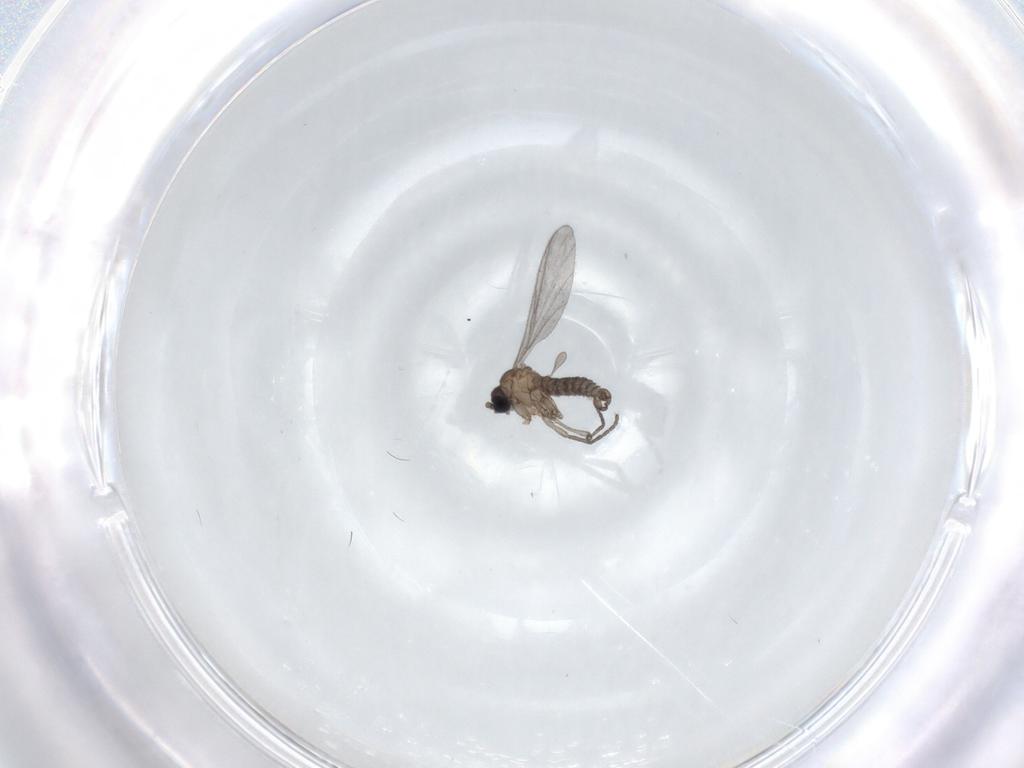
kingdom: Animalia
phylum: Arthropoda
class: Insecta
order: Diptera
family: Sciaridae
